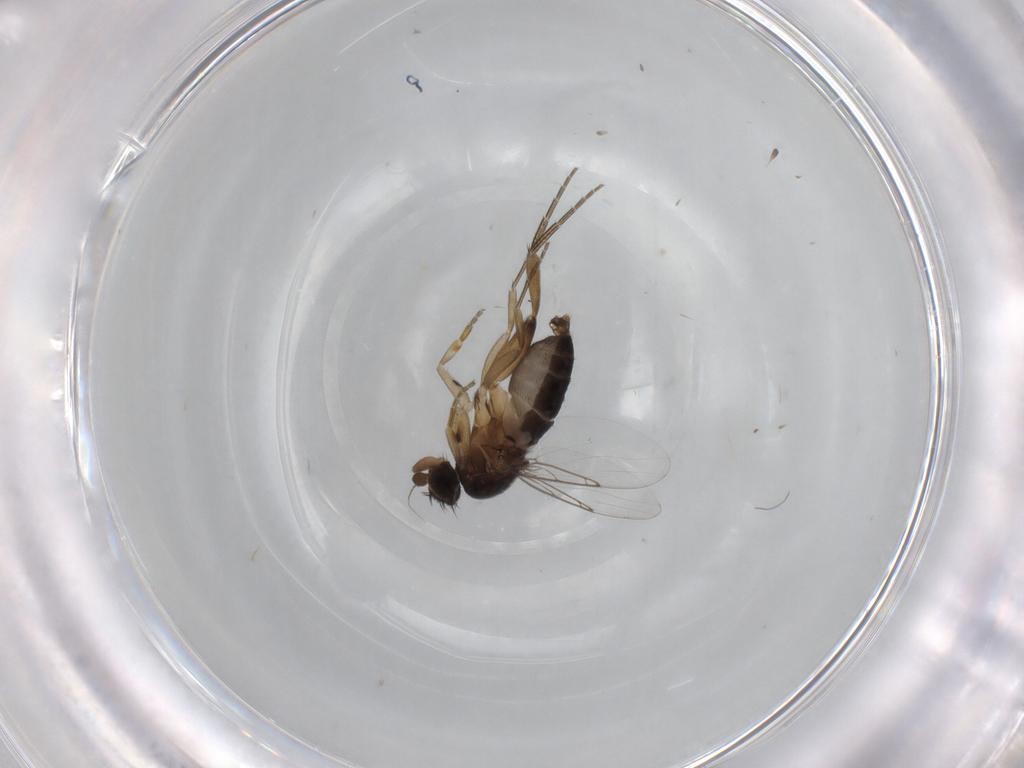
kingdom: Animalia
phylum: Arthropoda
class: Insecta
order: Diptera
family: Phoridae
